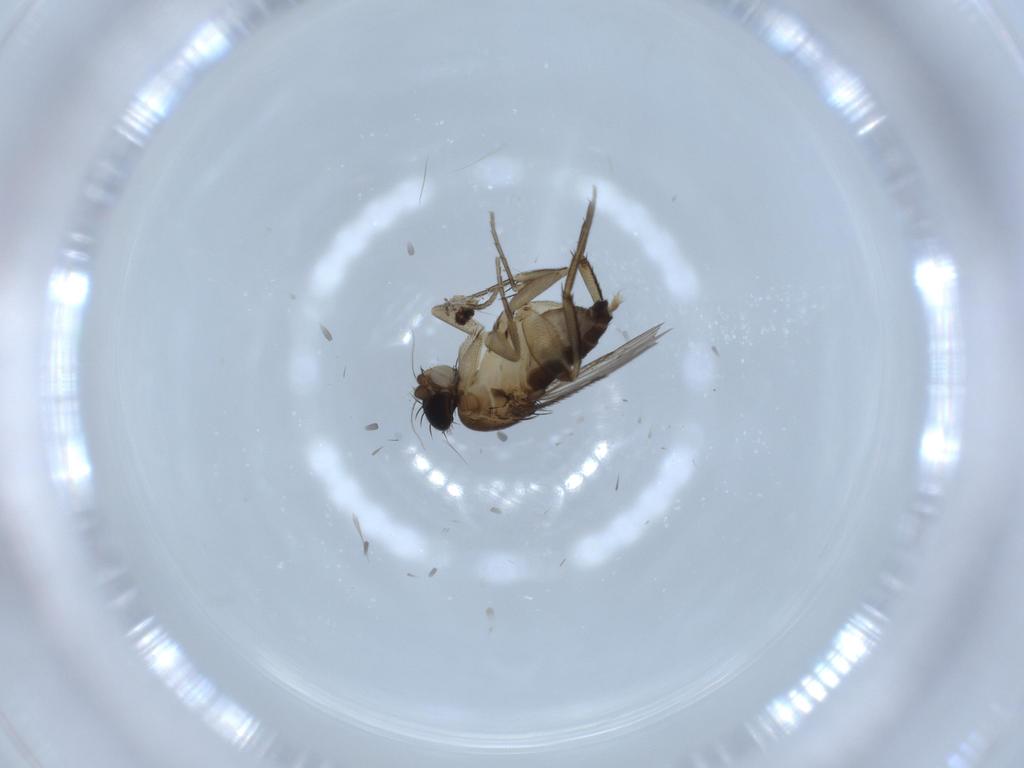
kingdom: Animalia
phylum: Arthropoda
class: Insecta
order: Diptera
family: Phoridae
